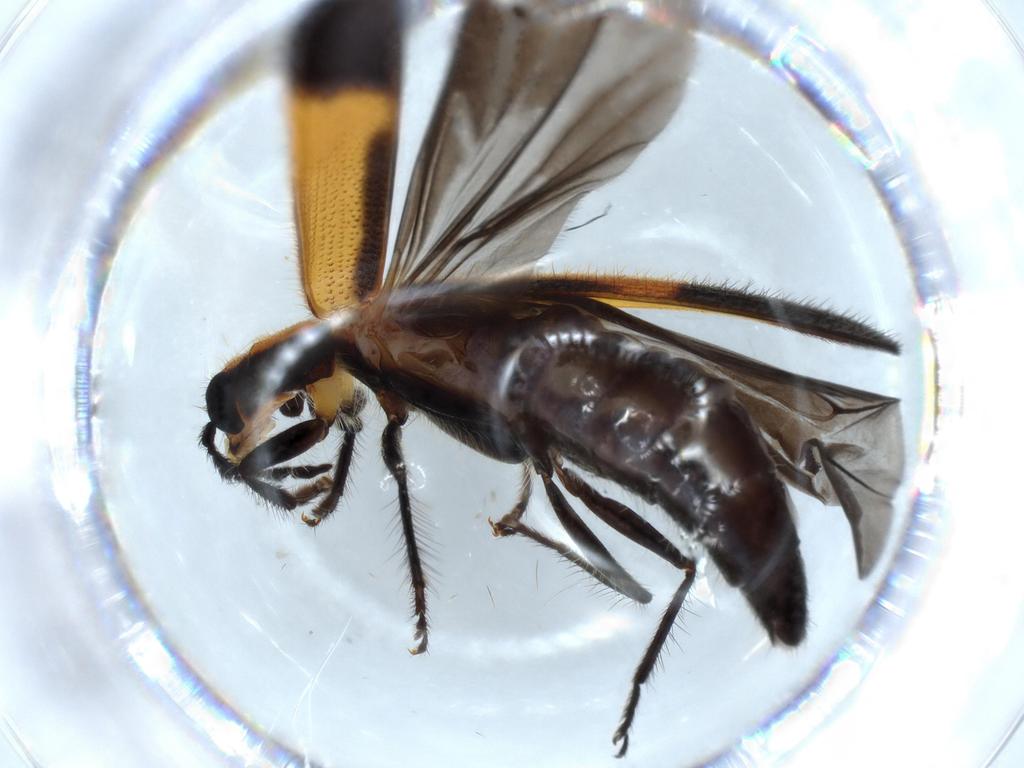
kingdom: Animalia
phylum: Arthropoda
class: Insecta
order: Coleoptera
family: Cleridae
